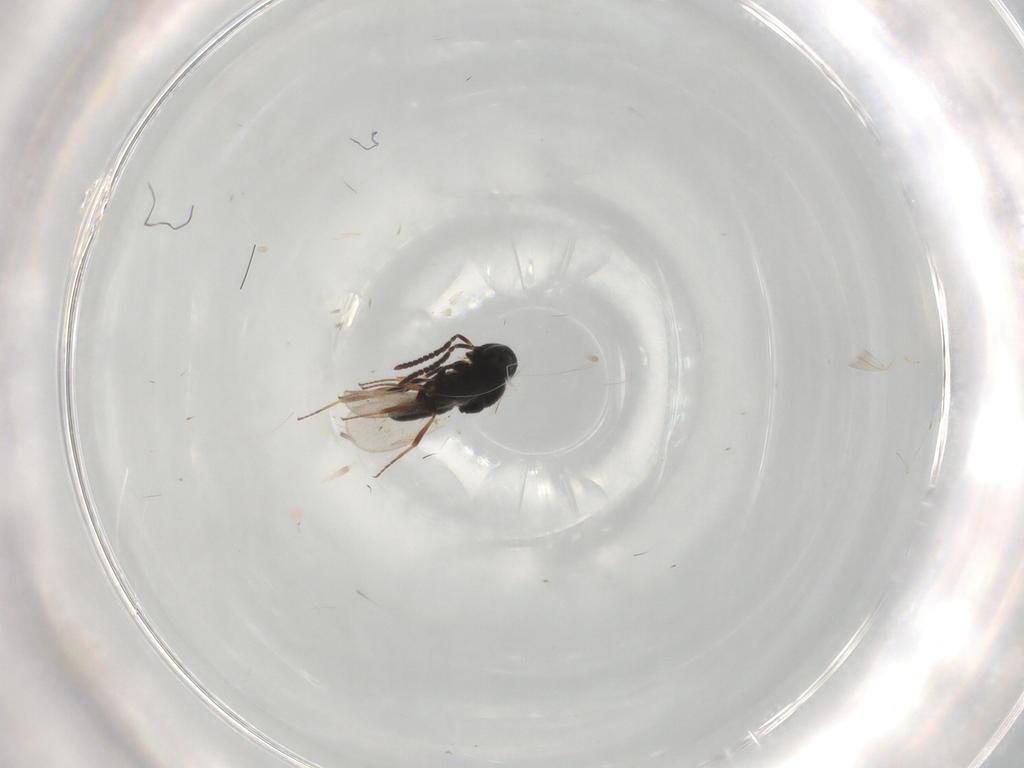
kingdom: Animalia
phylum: Arthropoda
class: Insecta
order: Hymenoptera
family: Scelionidae
